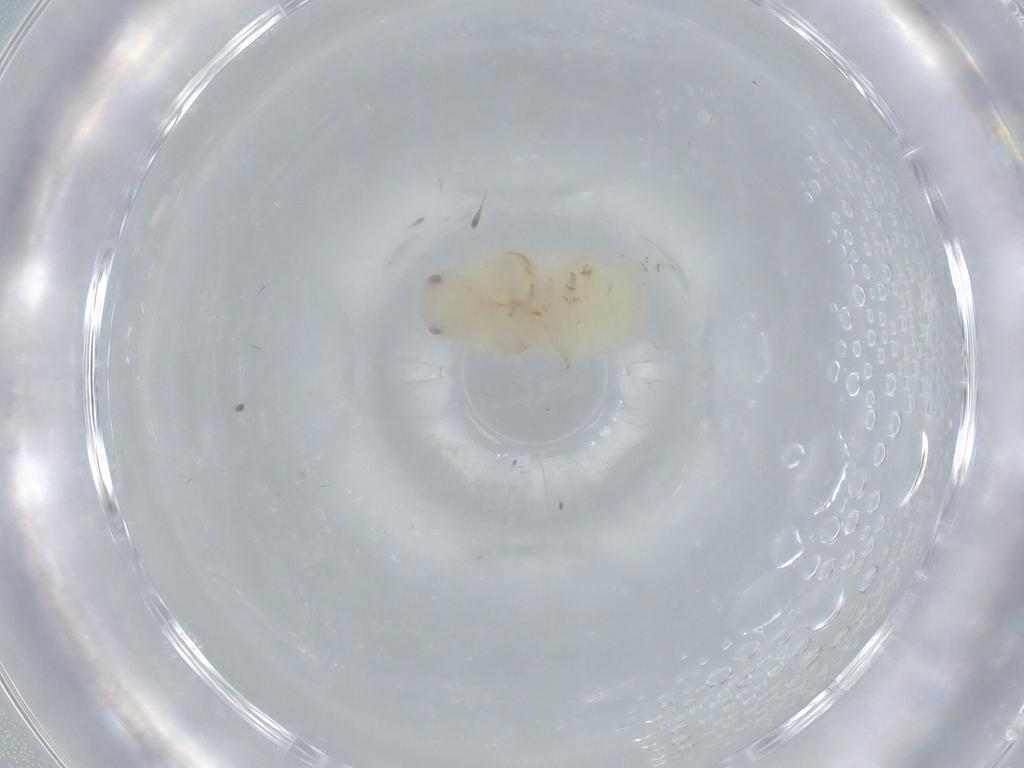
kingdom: Animalia
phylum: Arthropoda
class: Insecta
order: Hemiptera
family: Flatidae
